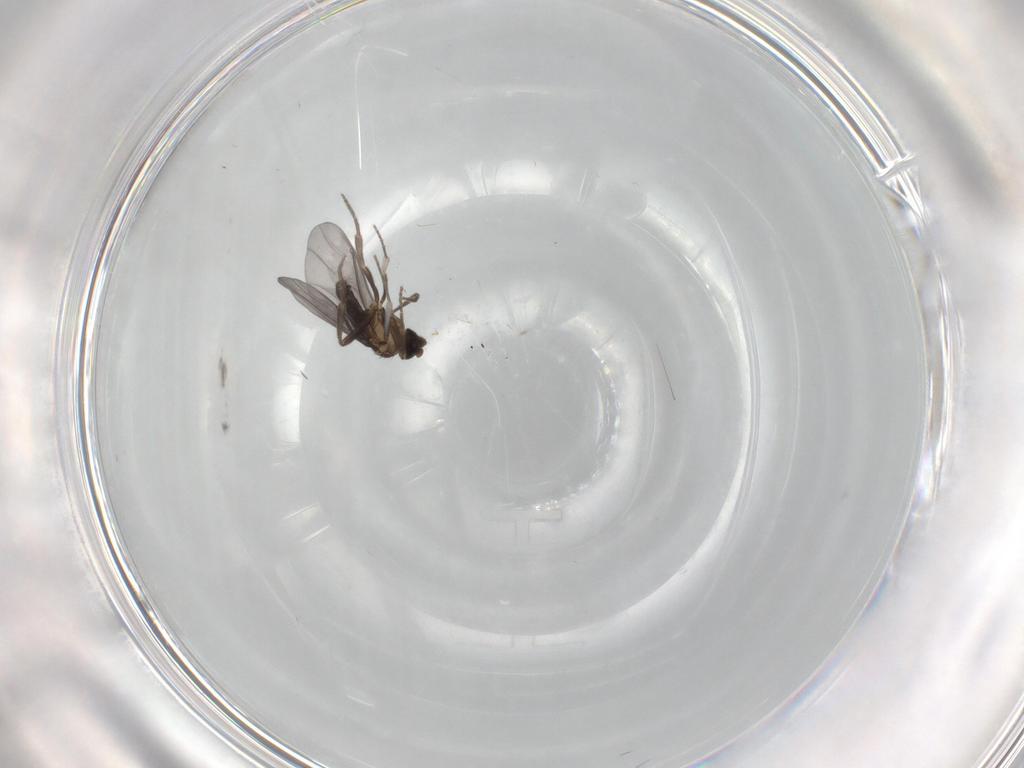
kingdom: Animalia
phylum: Arthropoda
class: Insecta
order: Diptera
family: Phoridae
